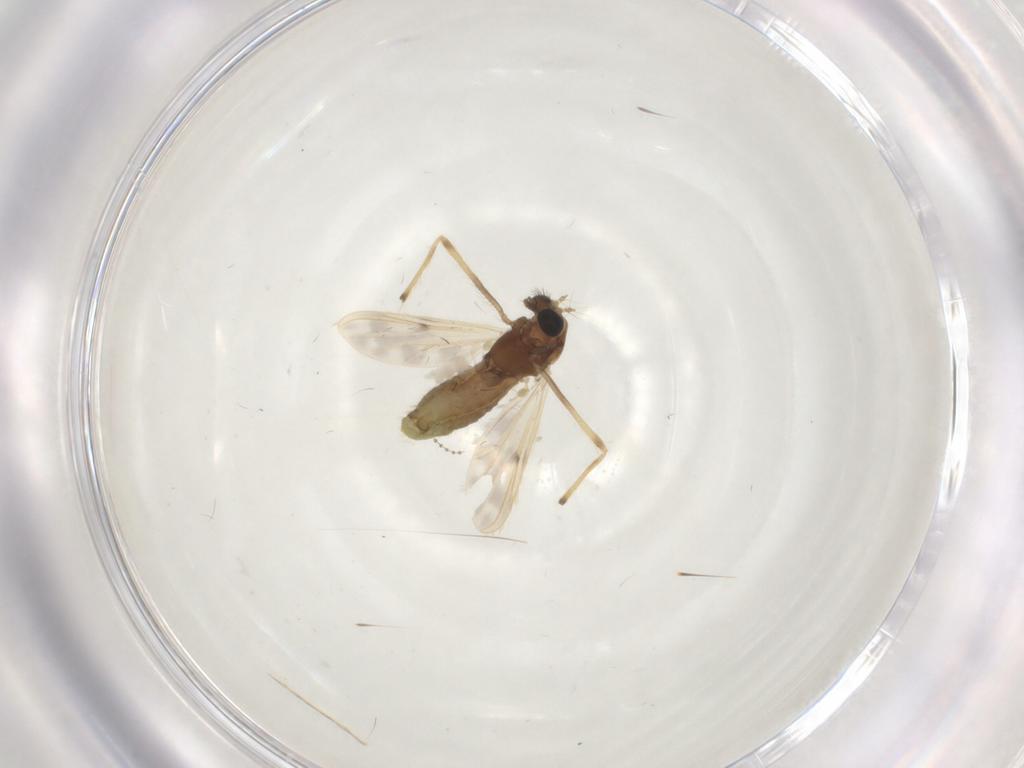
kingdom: Animalia
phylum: Arthropoda
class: Insecta
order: Diptera
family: Chironomidae
